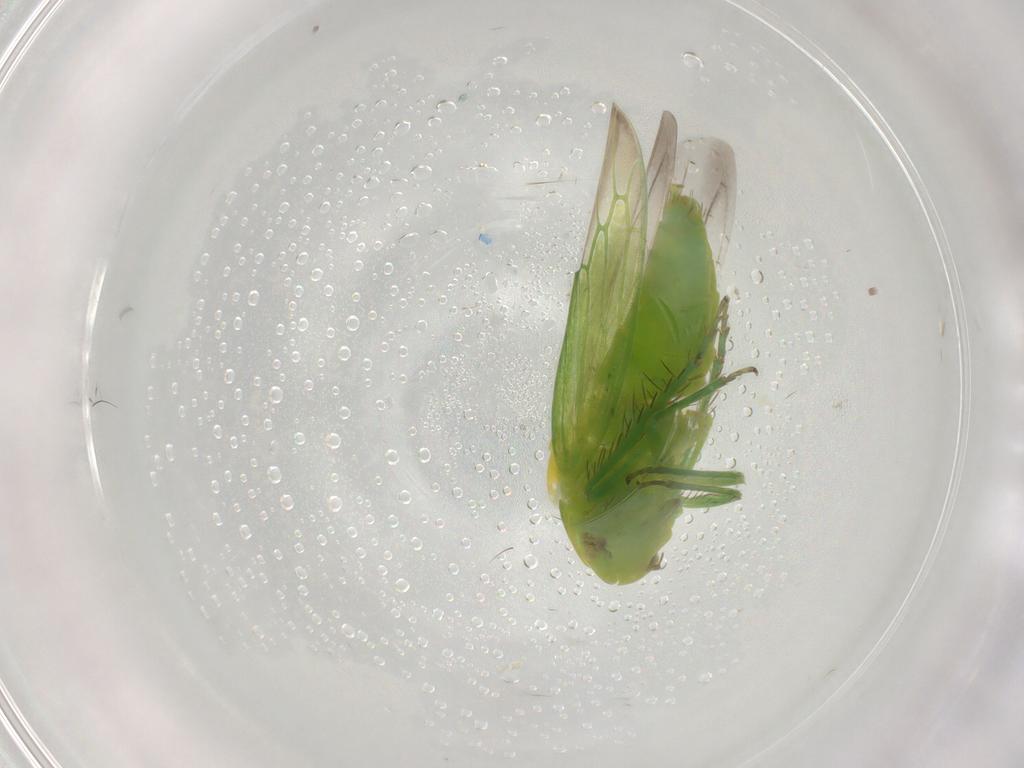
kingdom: Animalia
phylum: Arthropoda
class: Insecta
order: Hemiptera
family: Cicadellidae
